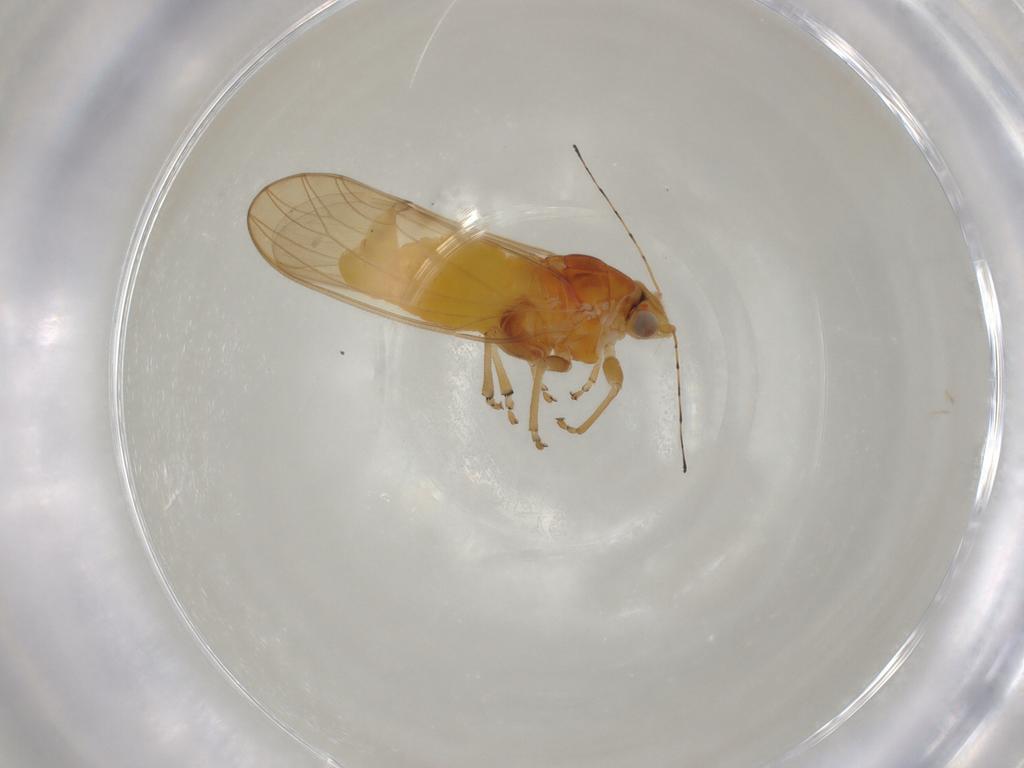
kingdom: Animalia
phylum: Arthropoda
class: Insecta
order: Hemiptera
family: Psylloidea_incertae_sedis
